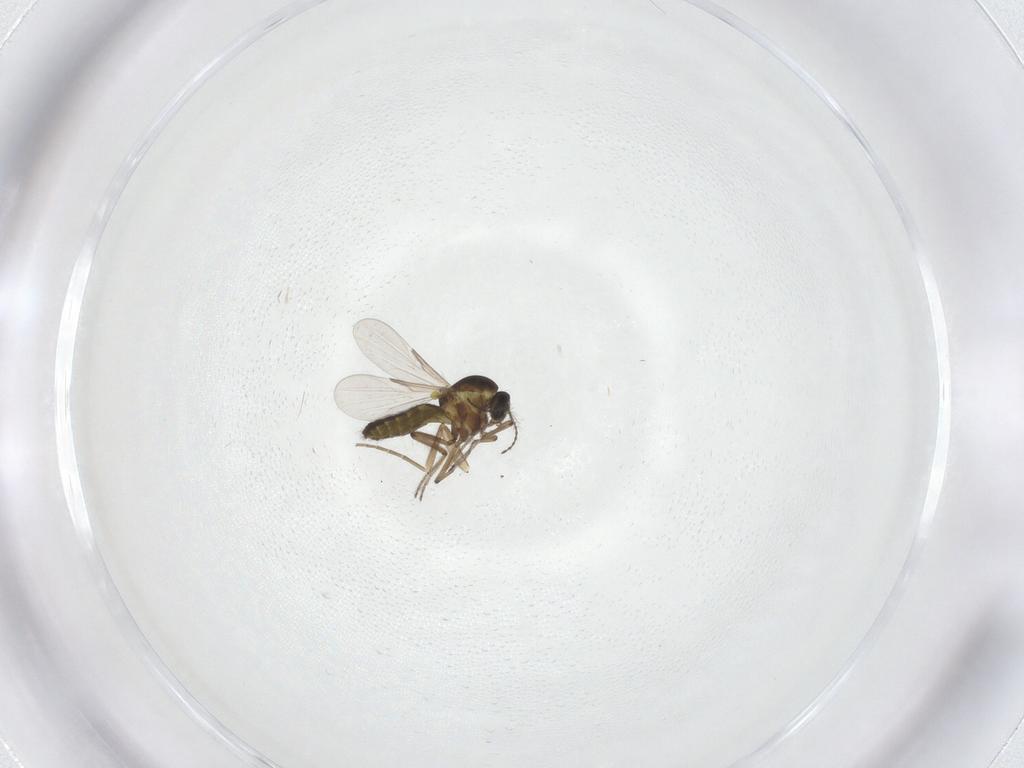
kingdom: Animalia
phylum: Arthropoda
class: Insecta
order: Diptera
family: Ceratopogonidae
